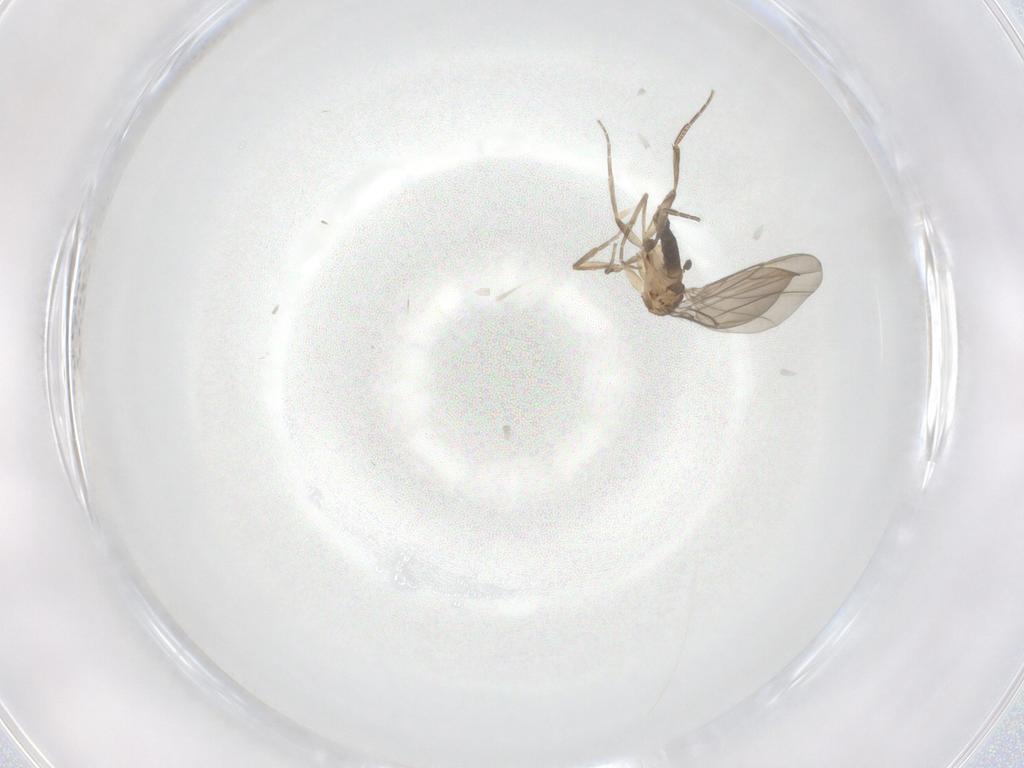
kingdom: Animalia
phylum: Arthropoda
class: Insecta
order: Diptera
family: Phoridae
